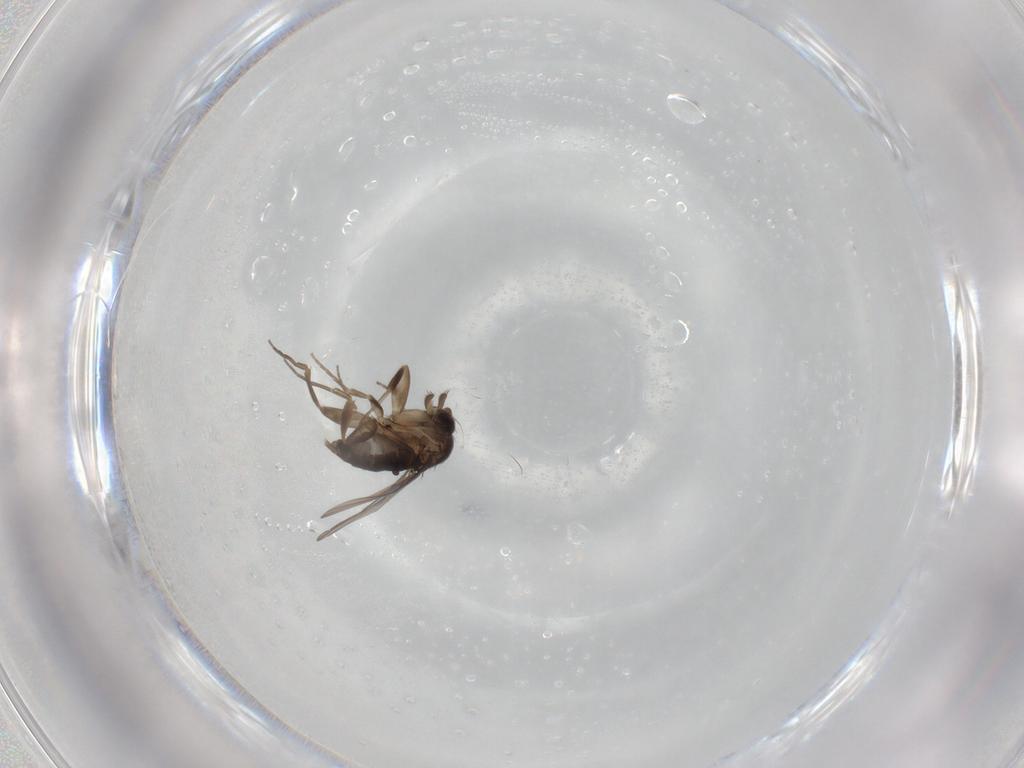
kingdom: Animalia
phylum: Arthropoda
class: Insecta
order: Diptera
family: Phoridae
